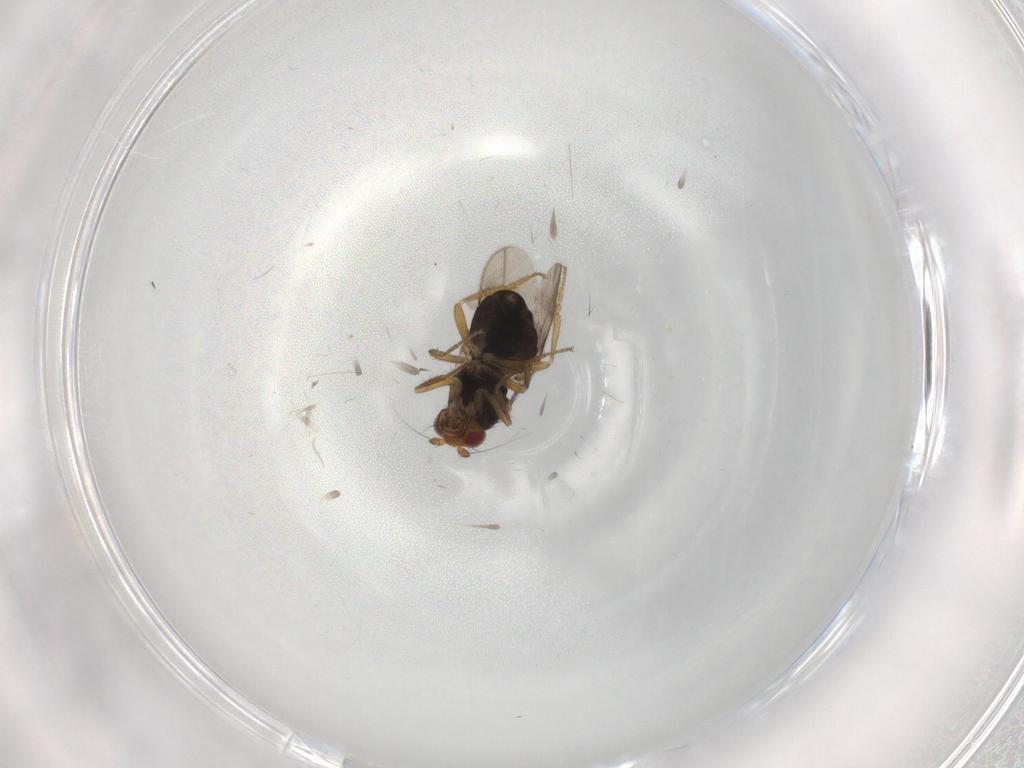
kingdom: Animalia
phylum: Arthropoda
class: Insecta
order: Diptera
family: Sphaeroceridae
